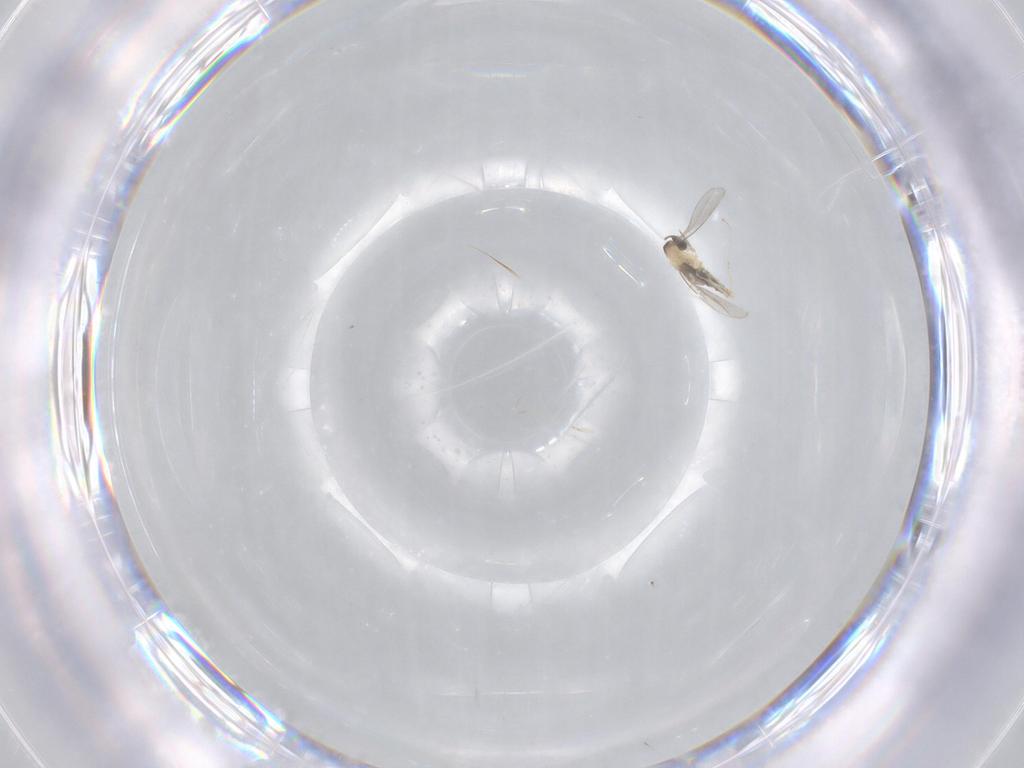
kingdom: Animalia
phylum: Arthropoda
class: Insecta
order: Diptera
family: Cecidomyiidae
